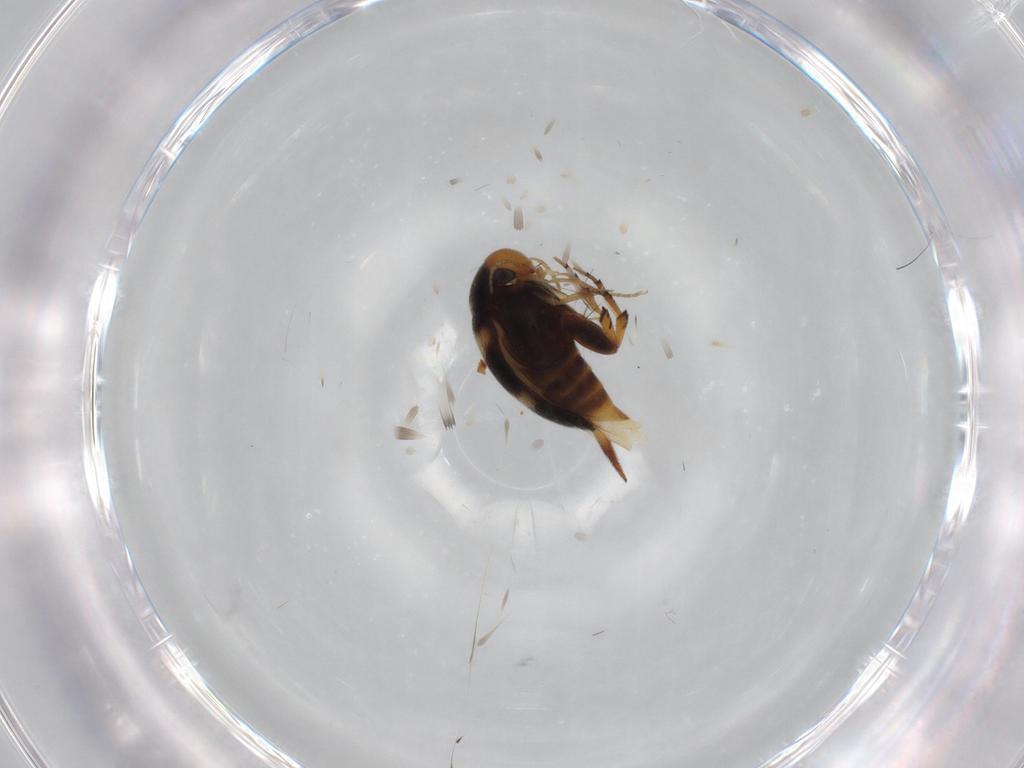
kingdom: Animalia
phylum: Arthropoda
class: Insecta
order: Coleoptera
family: Mordellidae
